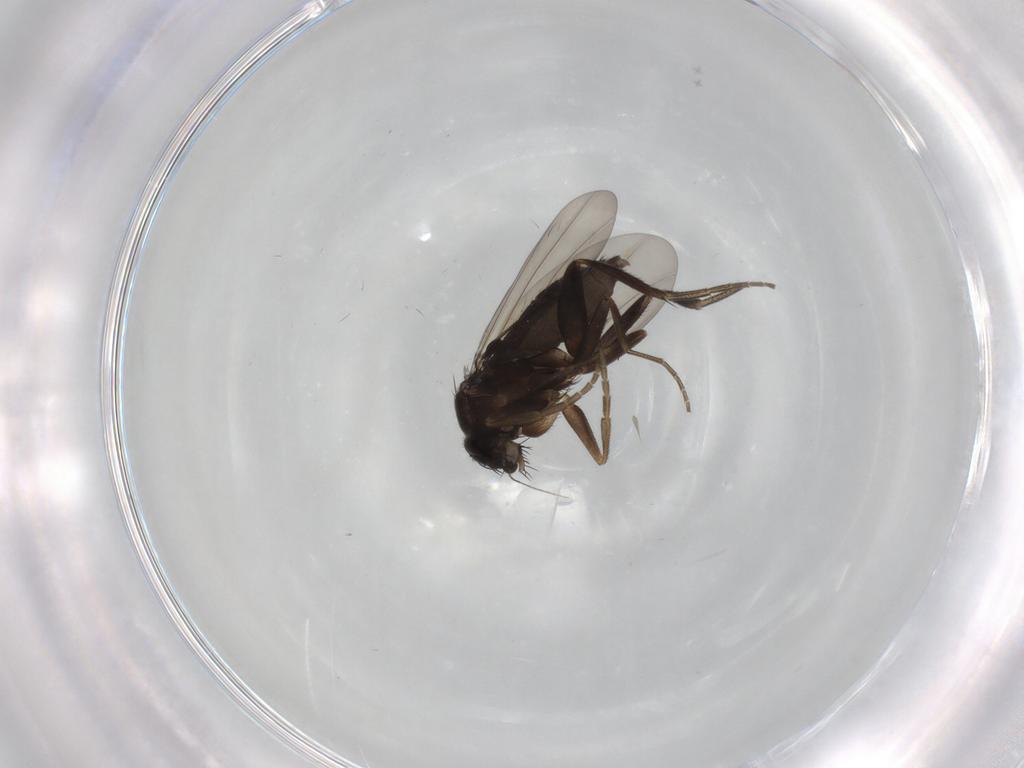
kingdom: Animalia
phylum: Arthropoda
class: Insecta
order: Diptera
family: Phoridae
